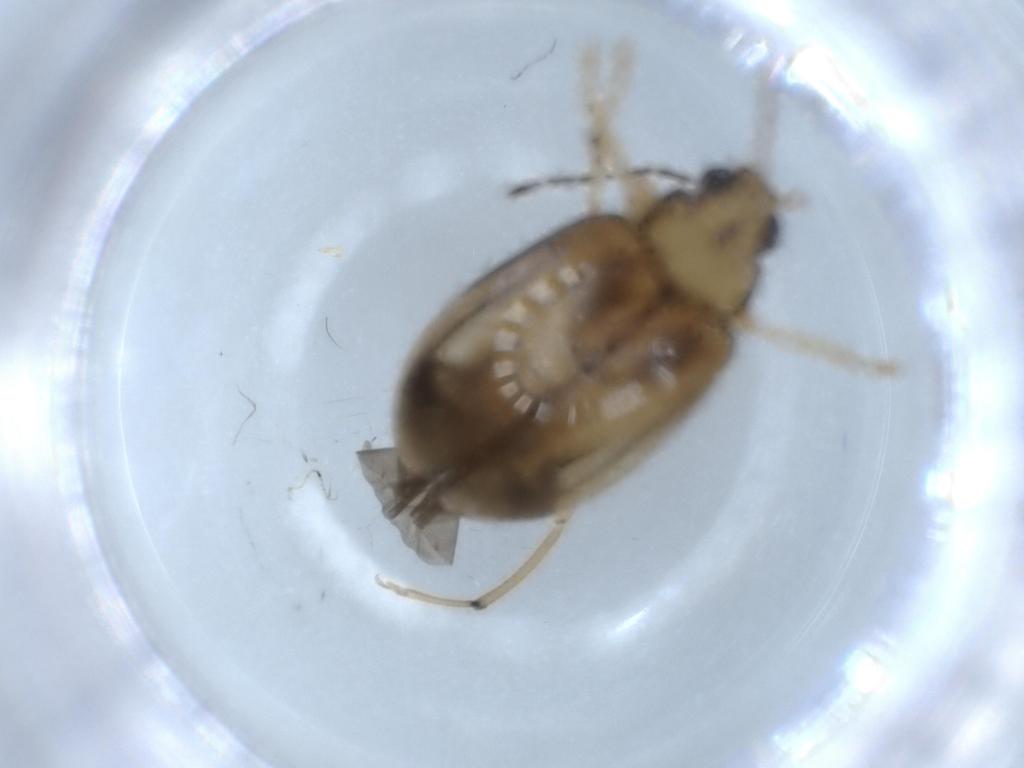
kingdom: Animalia
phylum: Arthropoda
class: Insecta
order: Coleoptera
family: Chrysomelidae
